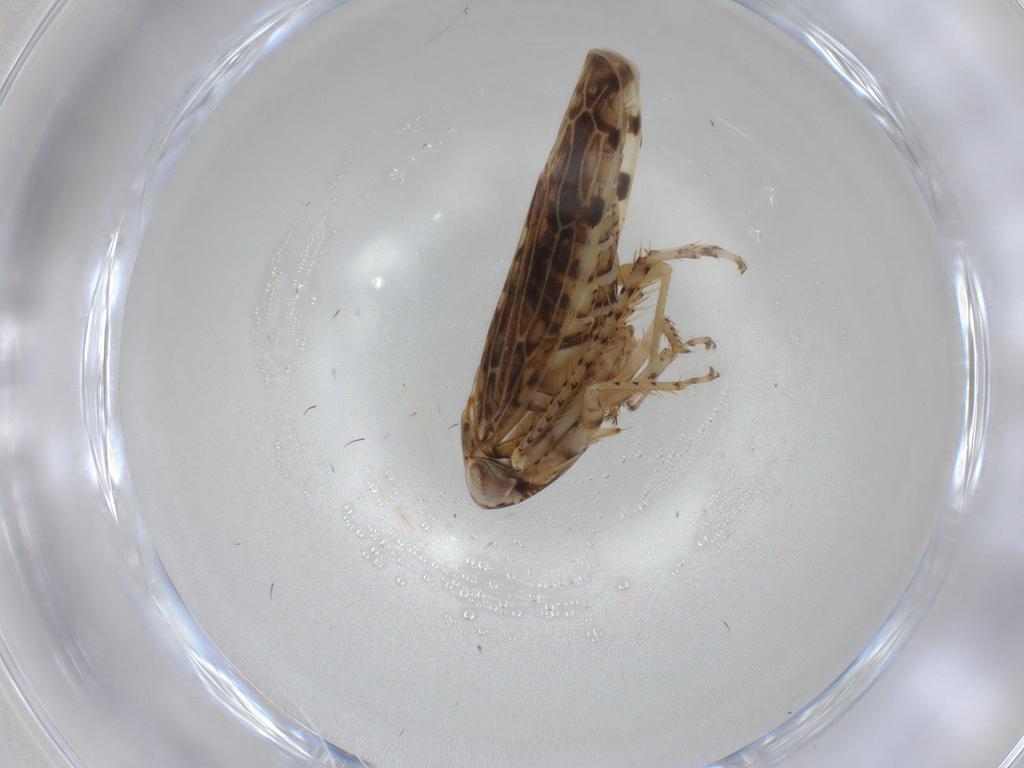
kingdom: Animalia
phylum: Arthropoda
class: Insecta
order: Hemiptera
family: Cicadellidae
